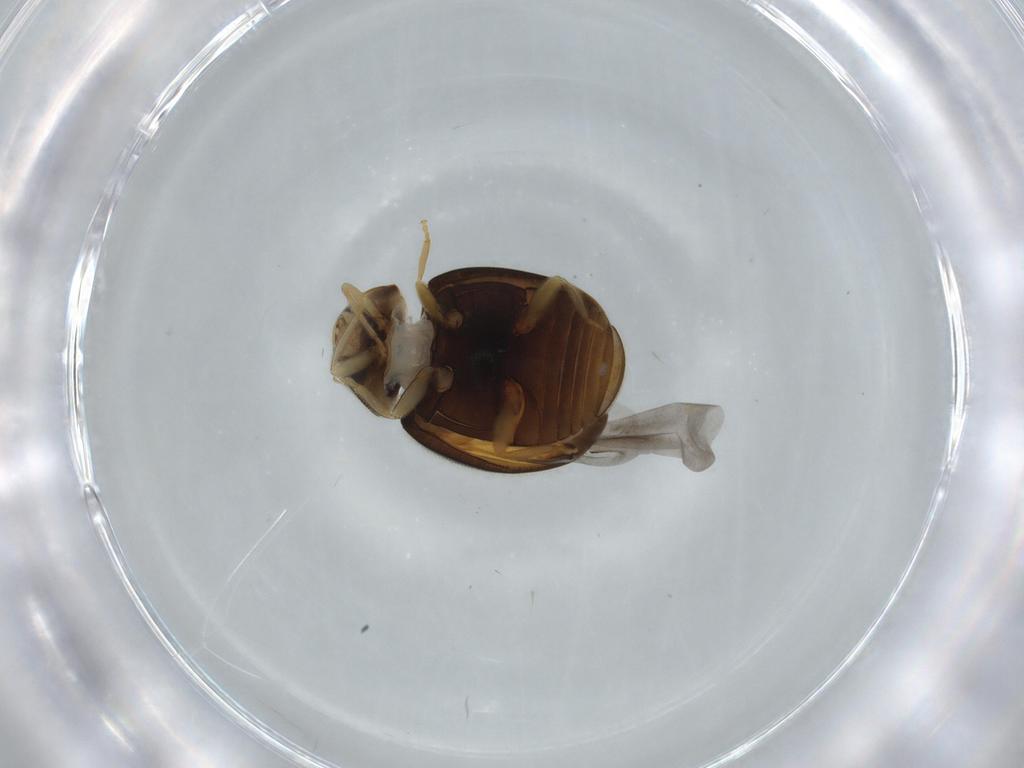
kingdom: Animalia
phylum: Arthropoda
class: Insecta
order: Coleoptera
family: Coccinellidae
